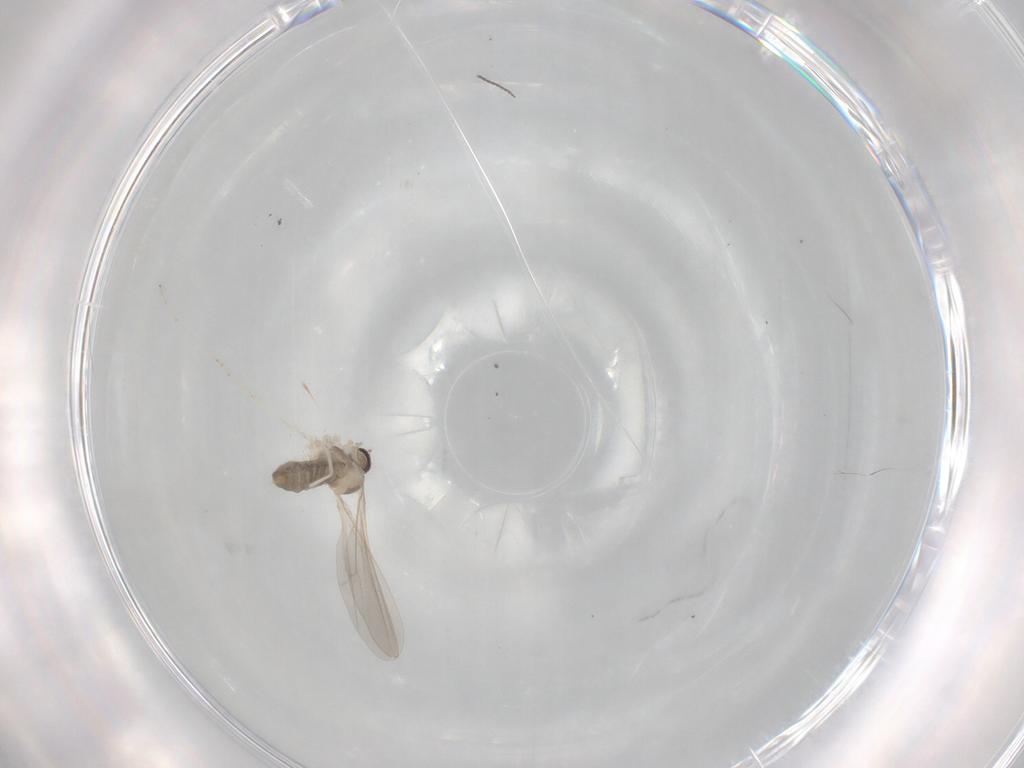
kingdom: Animalia
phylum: Arthropoda
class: Insecta
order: Diptera
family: Cecidomyiidae
